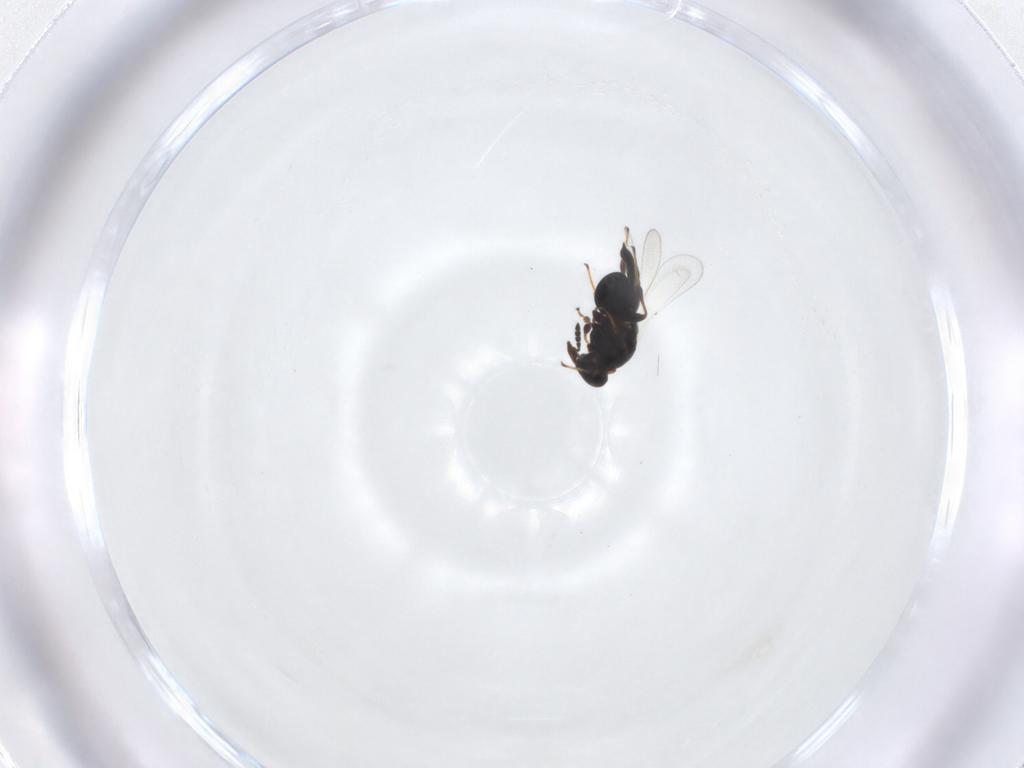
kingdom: Animalia
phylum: Arthropoda
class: Insecta
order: Hymenoptera
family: Platygastridae
